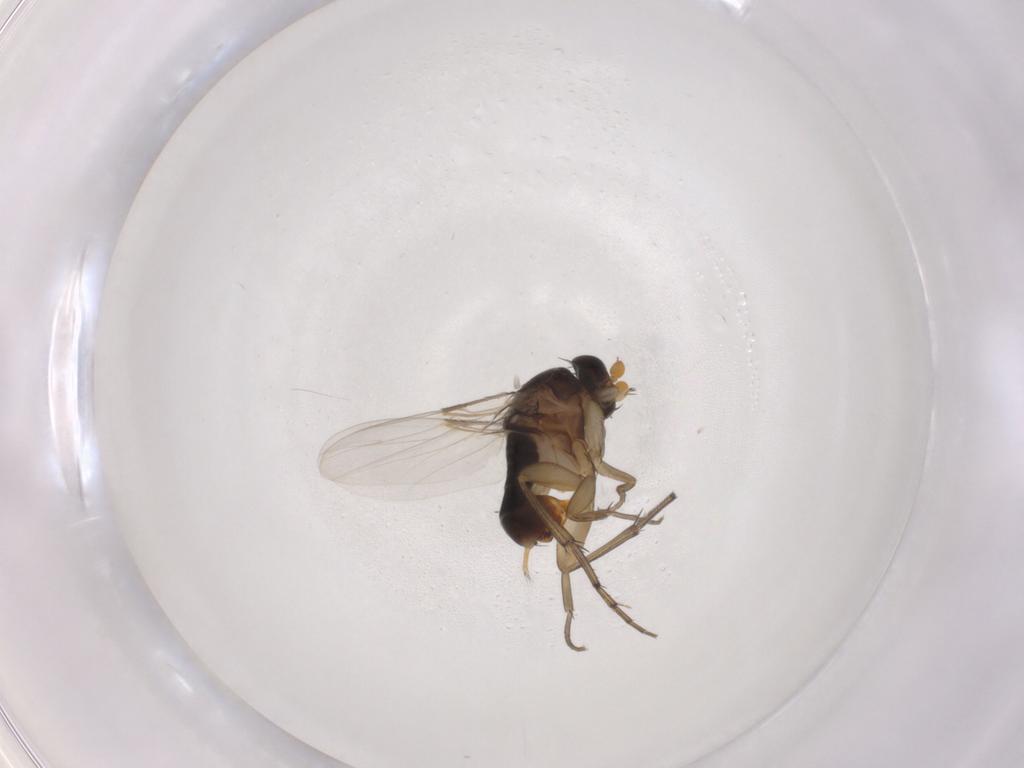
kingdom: Animalia
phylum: Arthropoda
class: Insecta
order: Diptera
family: Phoridae
